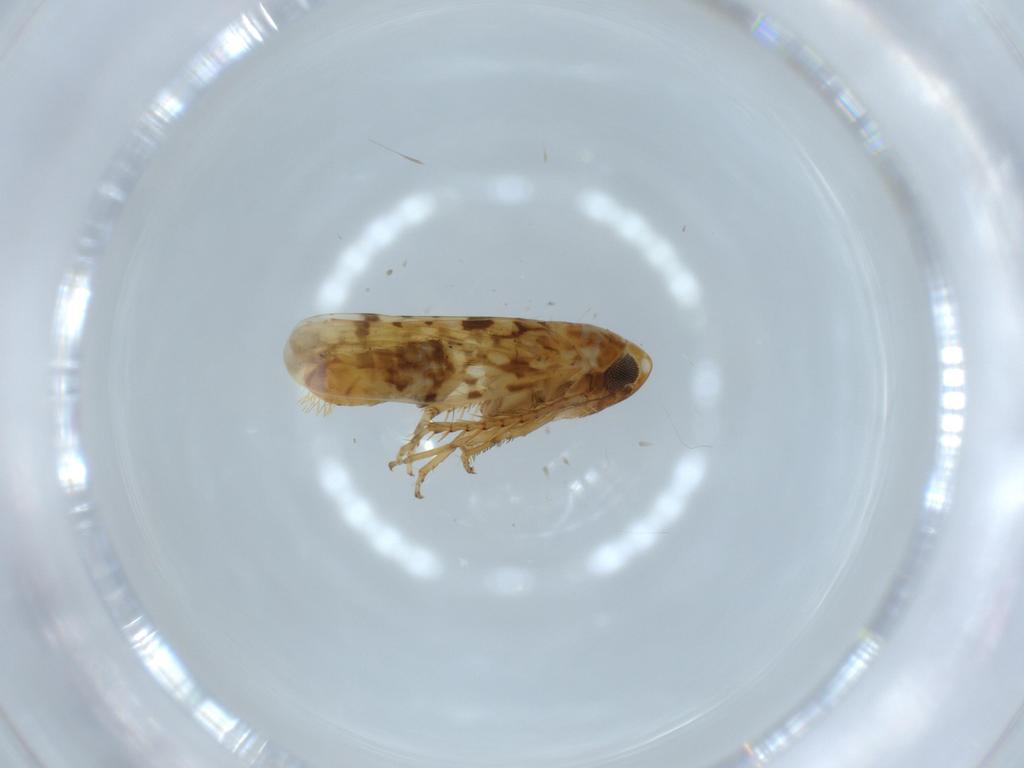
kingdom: Animalia
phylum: Arthropoda
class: Insecta
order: Hemiptera
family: Cicadellidae
